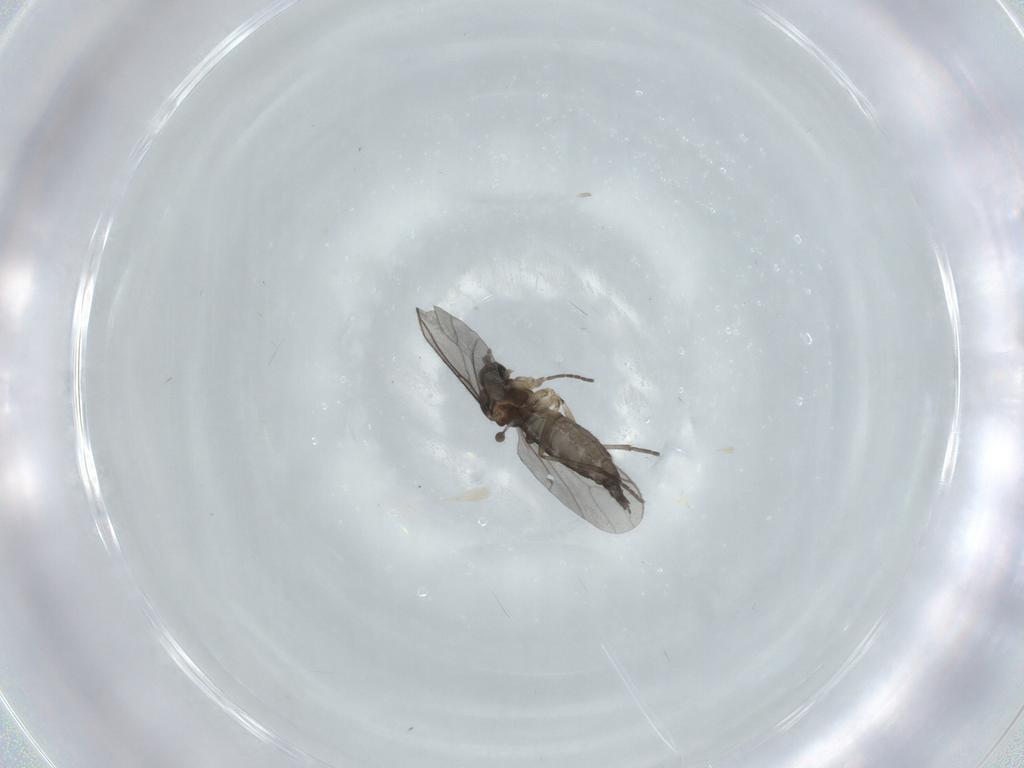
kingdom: Animalia
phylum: Arthropoda
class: Insecta
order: Diptera
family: Sciaridae
